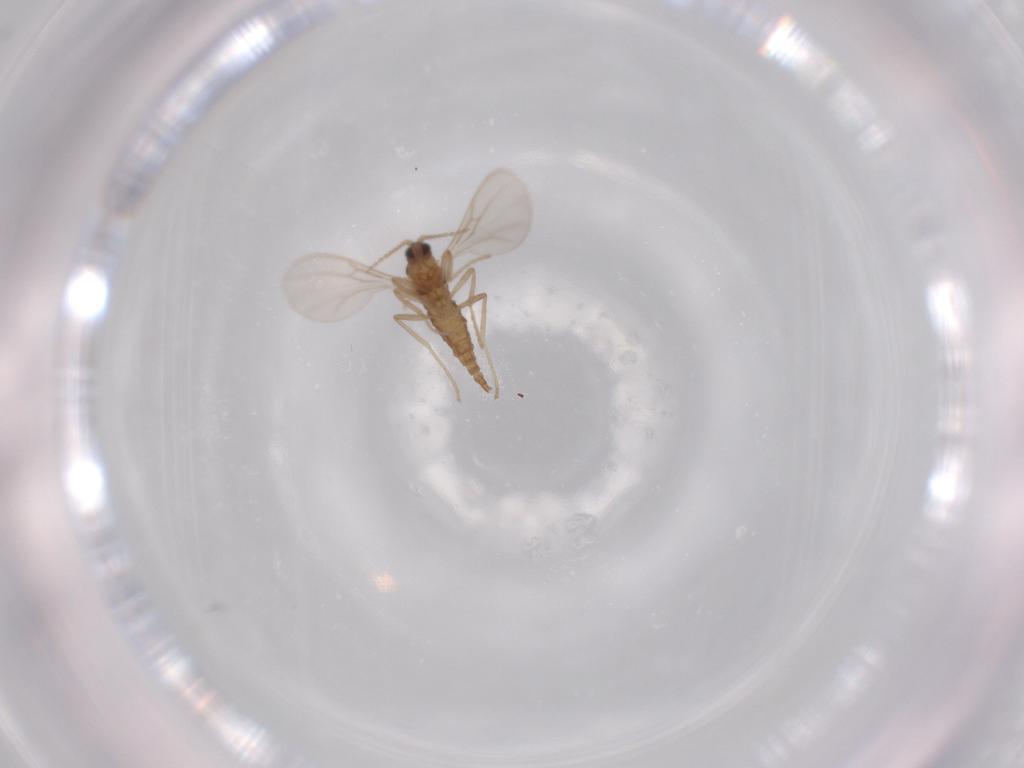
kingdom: Animalia
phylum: Arthropoda
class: Insecta
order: Diptera
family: Cecidomyiidae
